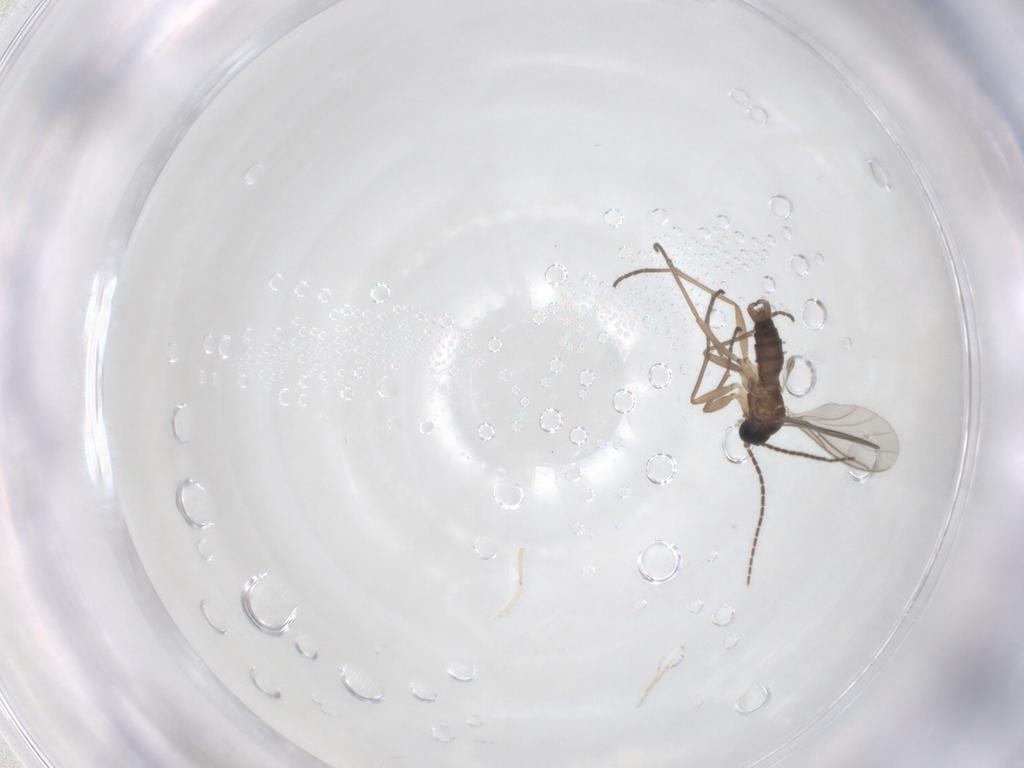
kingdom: Animalia
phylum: Arthropoda
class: Insecta
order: Diptera
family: Sciaridae
